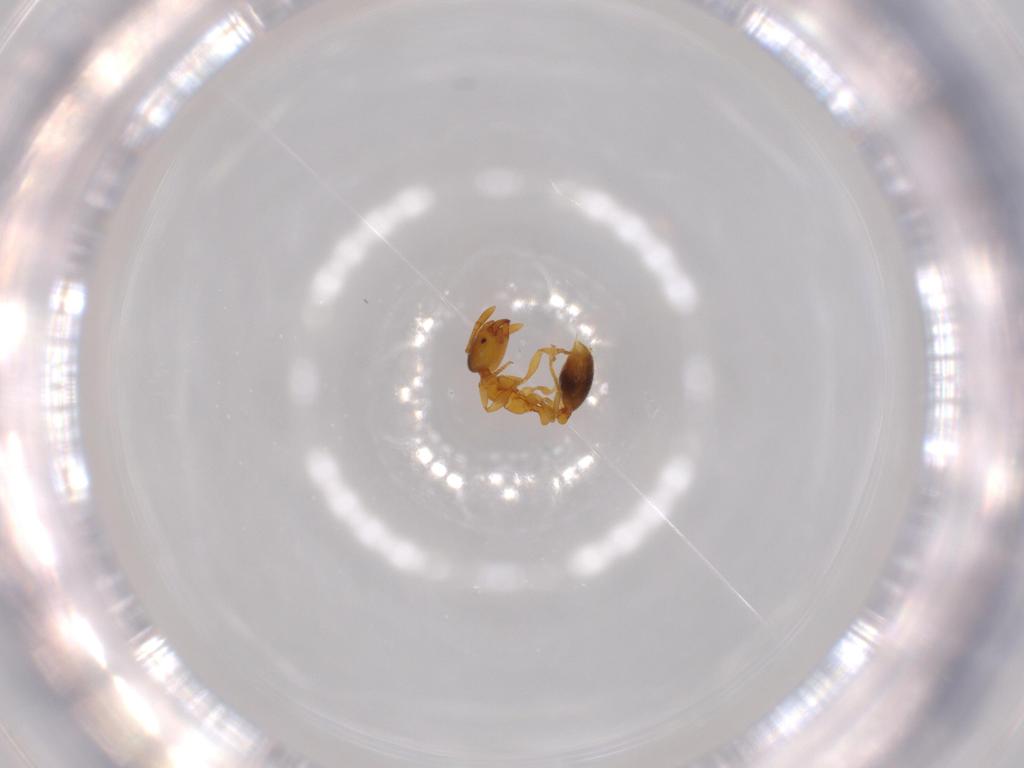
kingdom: Animalia
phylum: Arthropoda
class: Insecta
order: Hymenoptera
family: Formicidae
